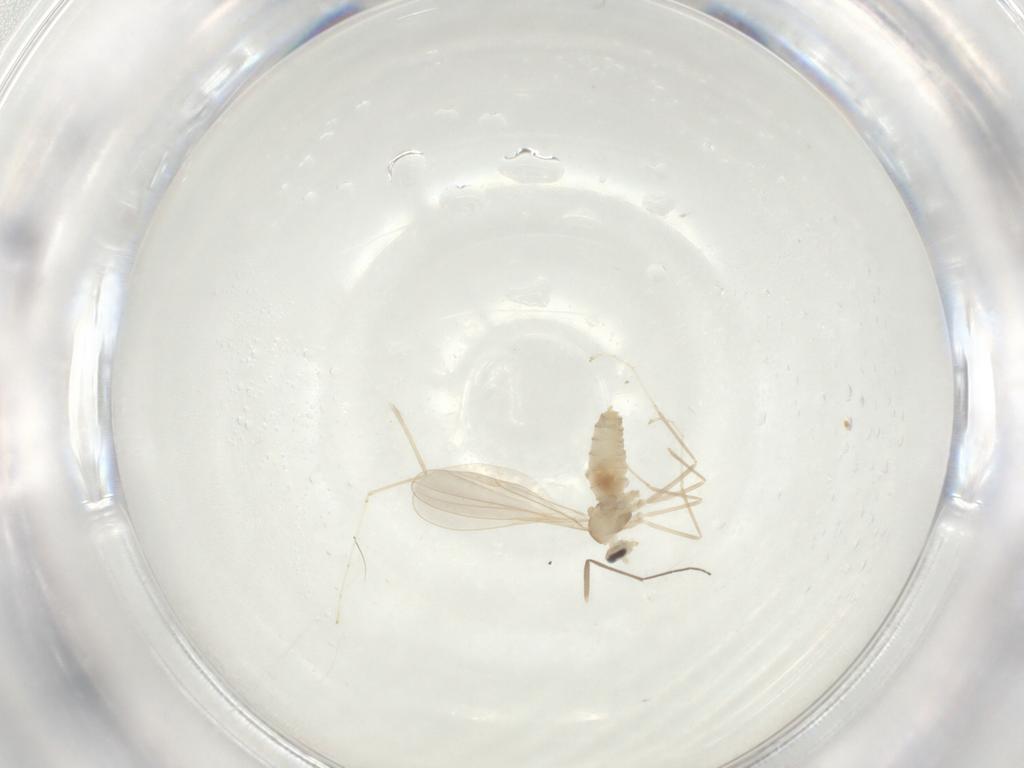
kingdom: Animalia
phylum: Arthropoda
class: Insecta
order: Diptera
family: Cecidomyiidae
